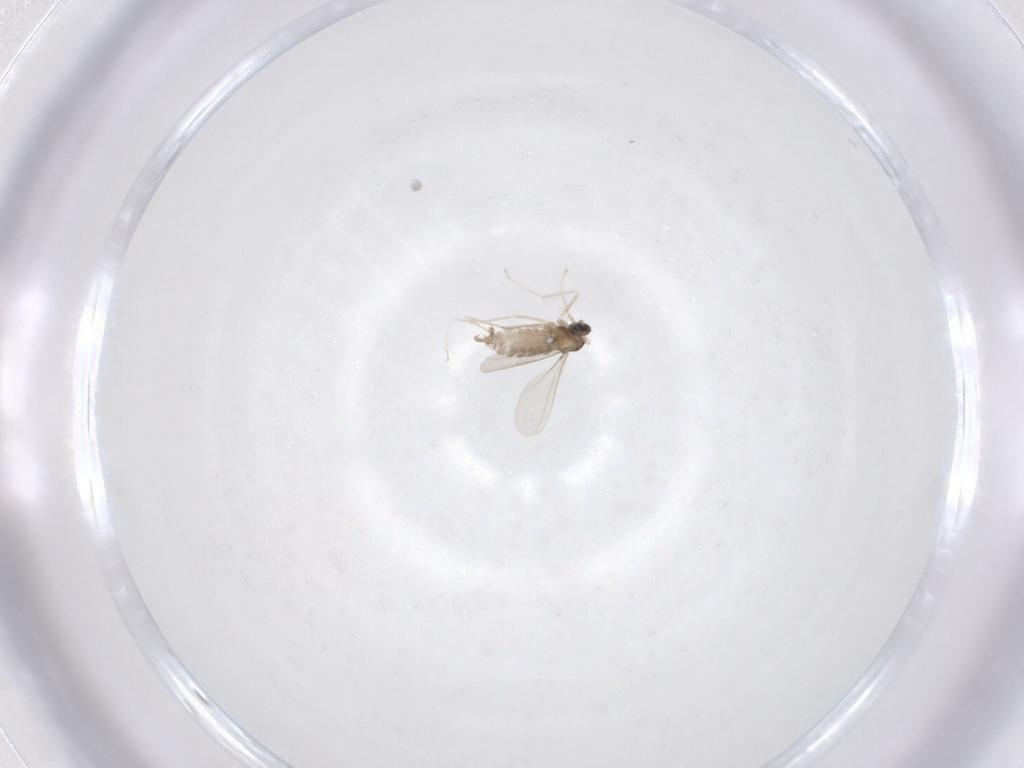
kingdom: Animalia
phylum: Arthropoda
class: Insecta
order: Diptera
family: Cecidomyiidae
